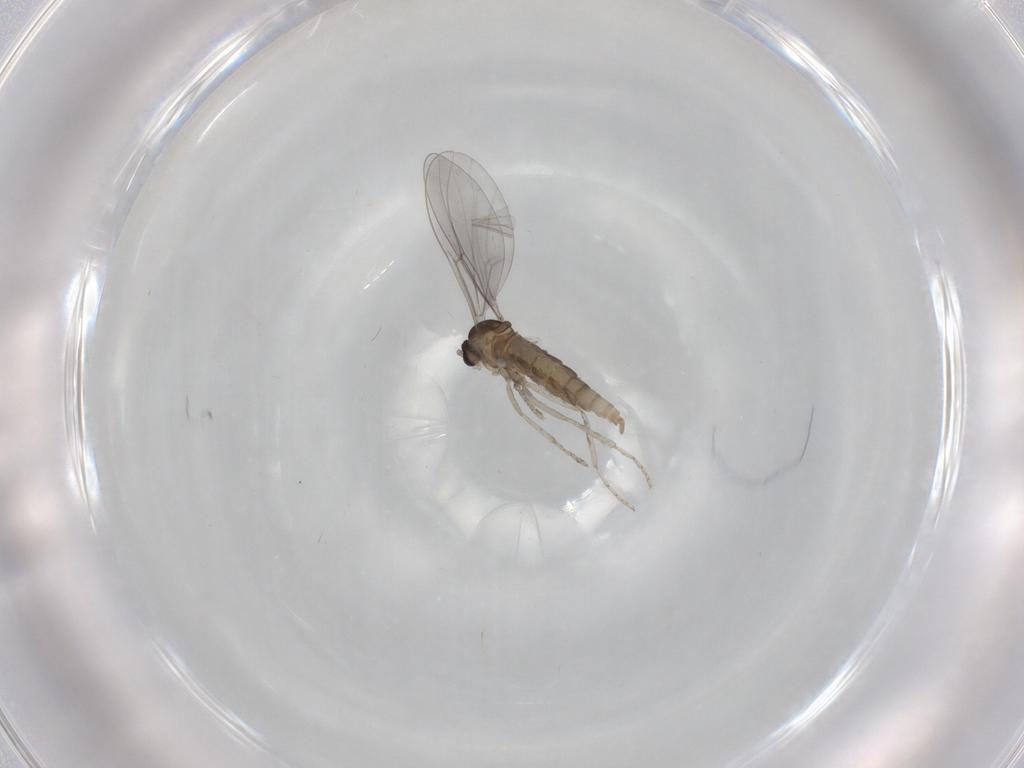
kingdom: Animalia
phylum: Arthropoda
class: Insecta
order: Diptera
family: Cecidomyiidae
